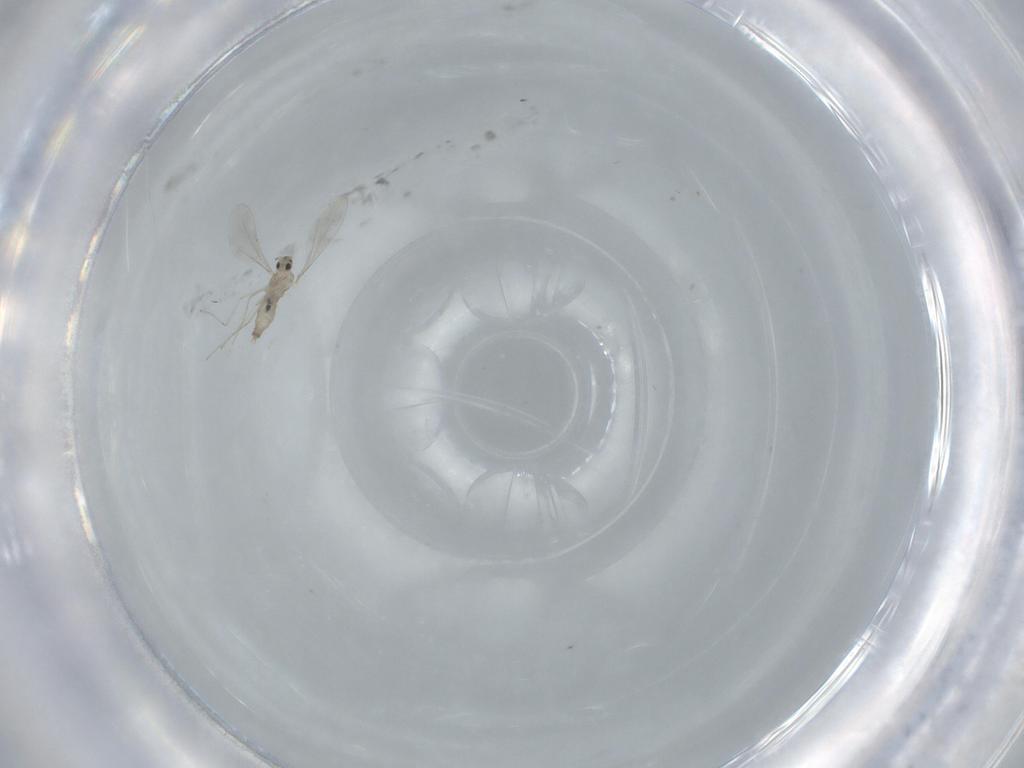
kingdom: Animalia
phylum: Arthropoda
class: Insecta
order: Diptera
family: Cecidomyiidae
